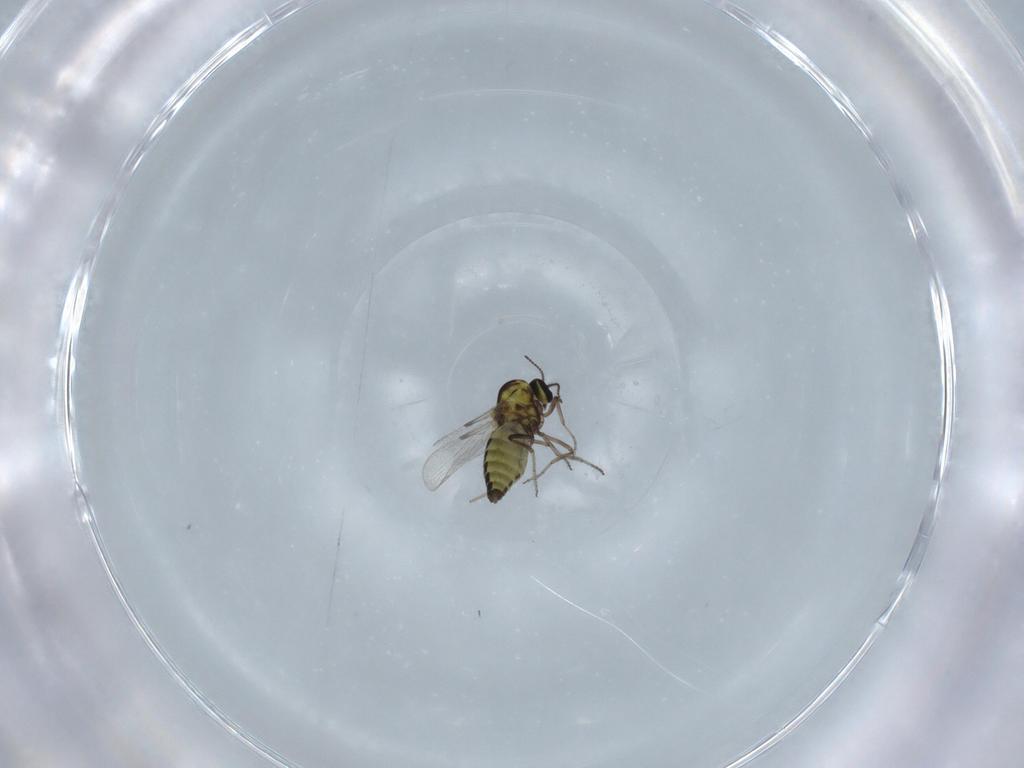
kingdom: Animalia
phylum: Arthropoda
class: Insecta
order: Diptera
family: Ceratopogonidae
